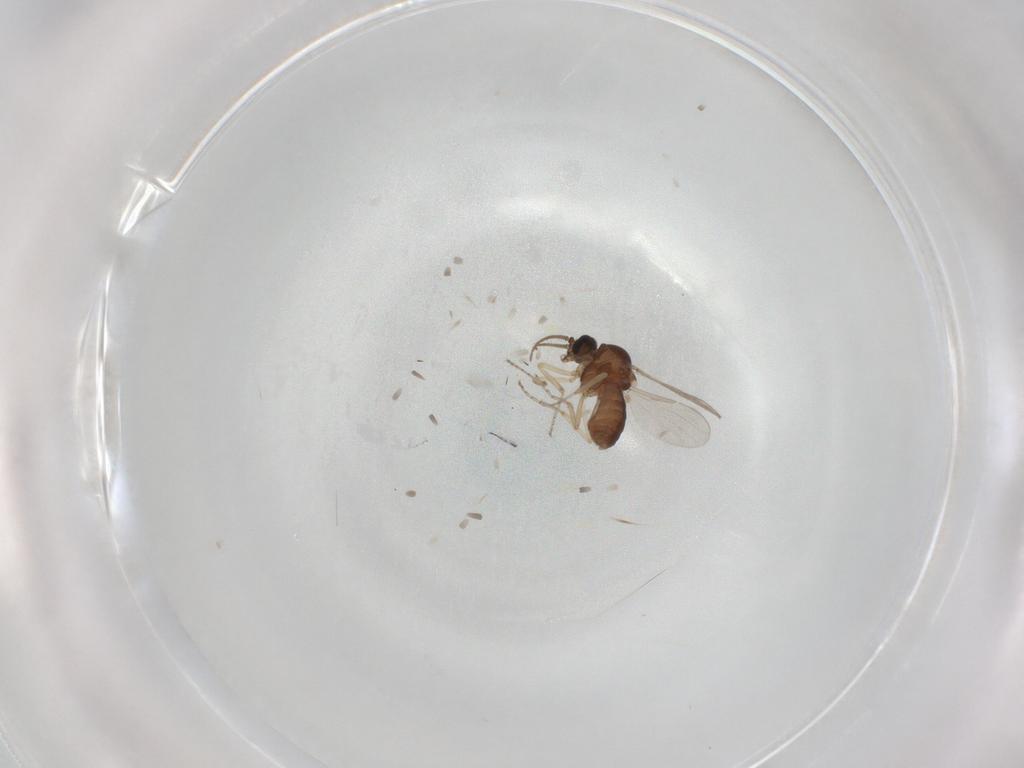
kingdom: Animalia
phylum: Arthropoda
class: Insecta
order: Diptera
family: Ceratopogonidae
